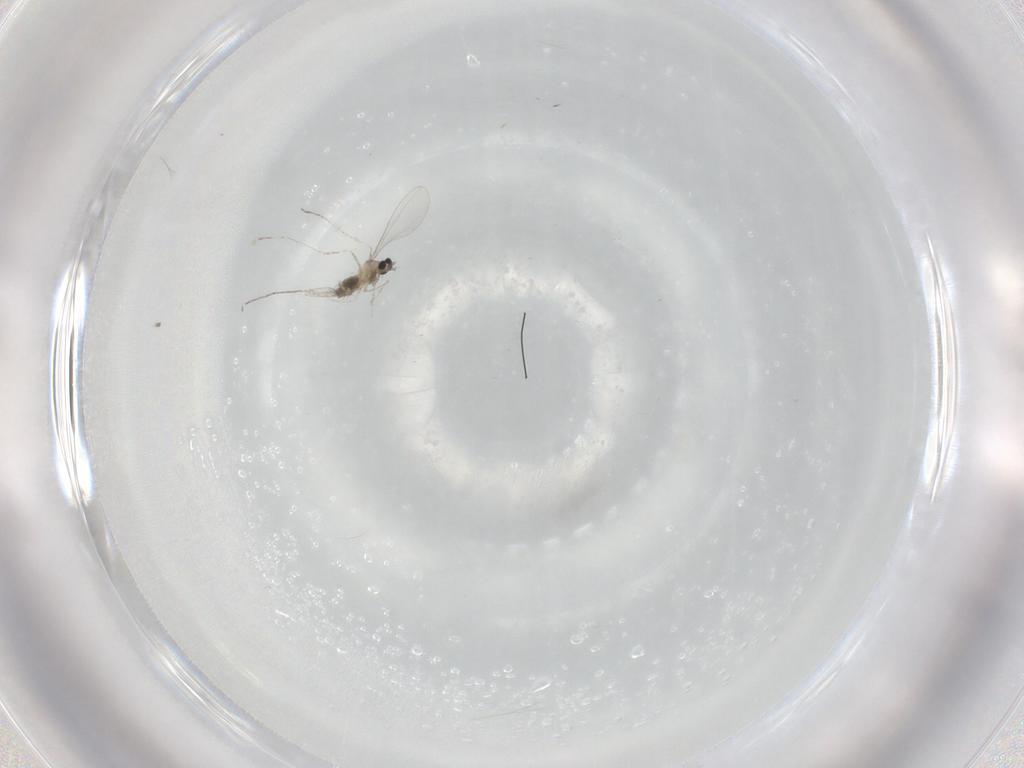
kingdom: Animalia
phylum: Arthropoda
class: Insecta
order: Diptera
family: Cecidomyiidae
